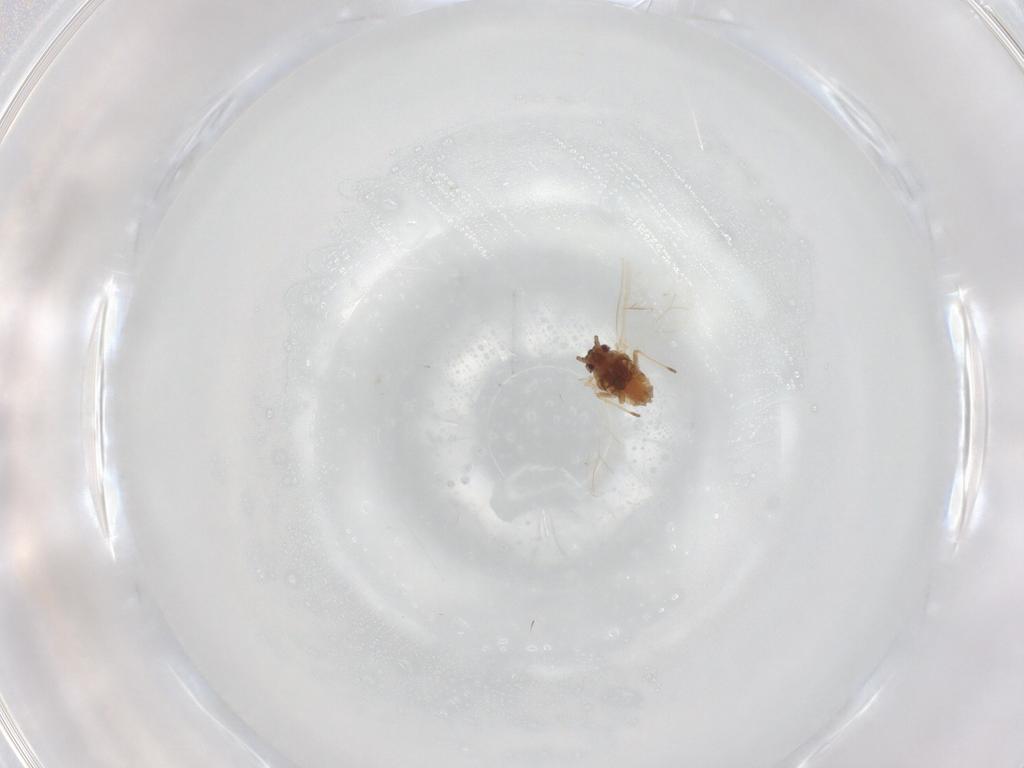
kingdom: Animalia
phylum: Arthropoda
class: Insecta
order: Hemiptera
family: Aphididae
